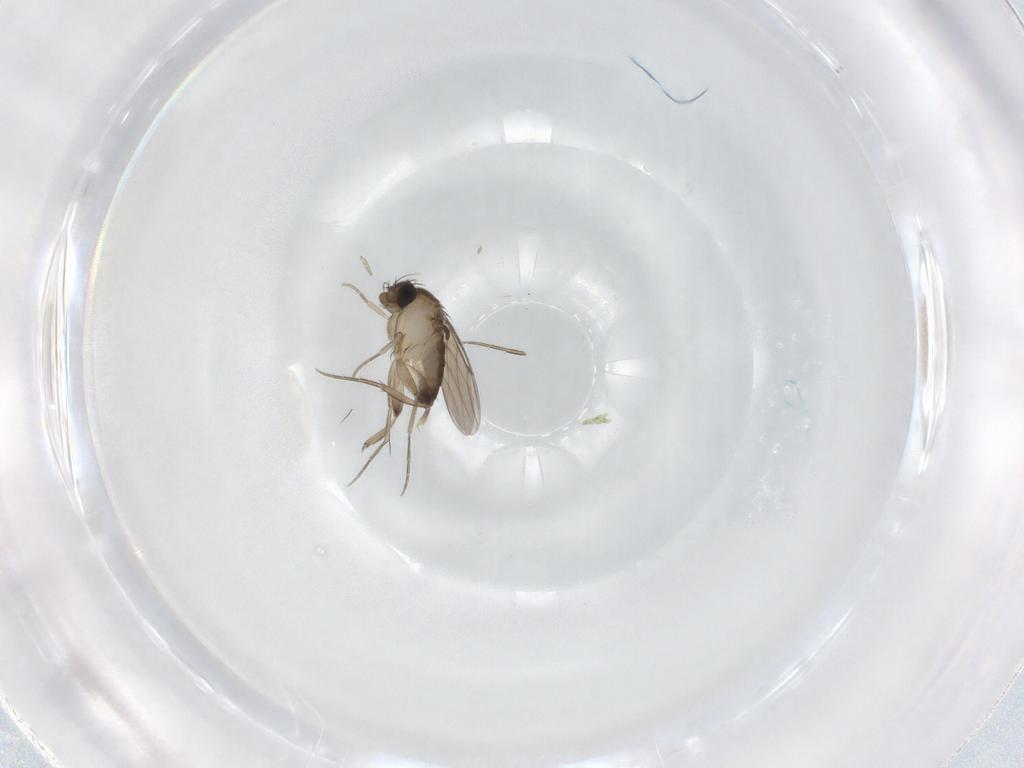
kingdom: Animalia
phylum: Arthropoda
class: Insecta
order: Diptera
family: Phoridae
